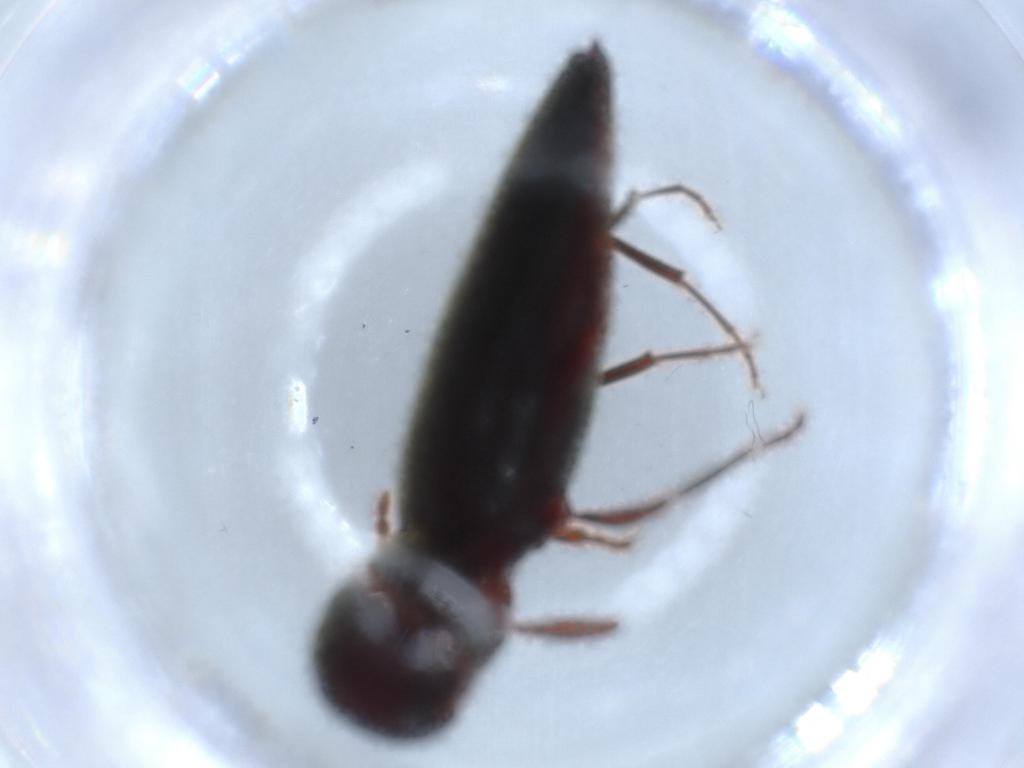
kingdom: Animalia
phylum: Arthropoda
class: Insecta
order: Coleoptera
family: Eucnemidae
